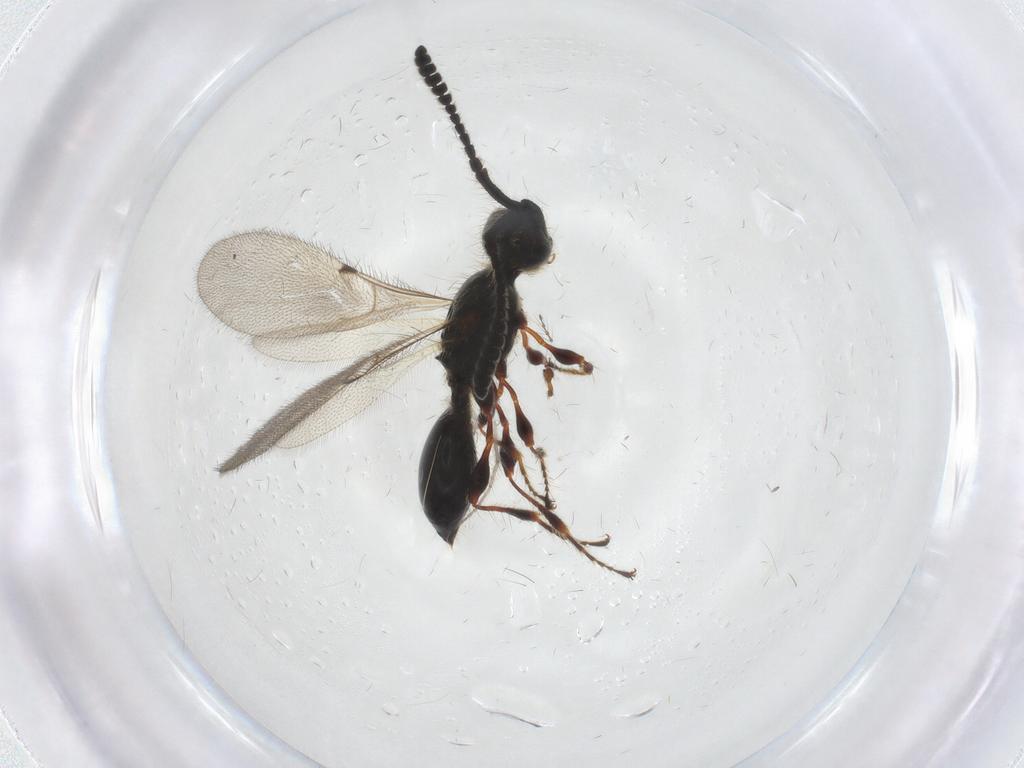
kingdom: Animalia
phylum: Arthropoda
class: Insecta
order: Hymenoptera
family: Diapriidae
